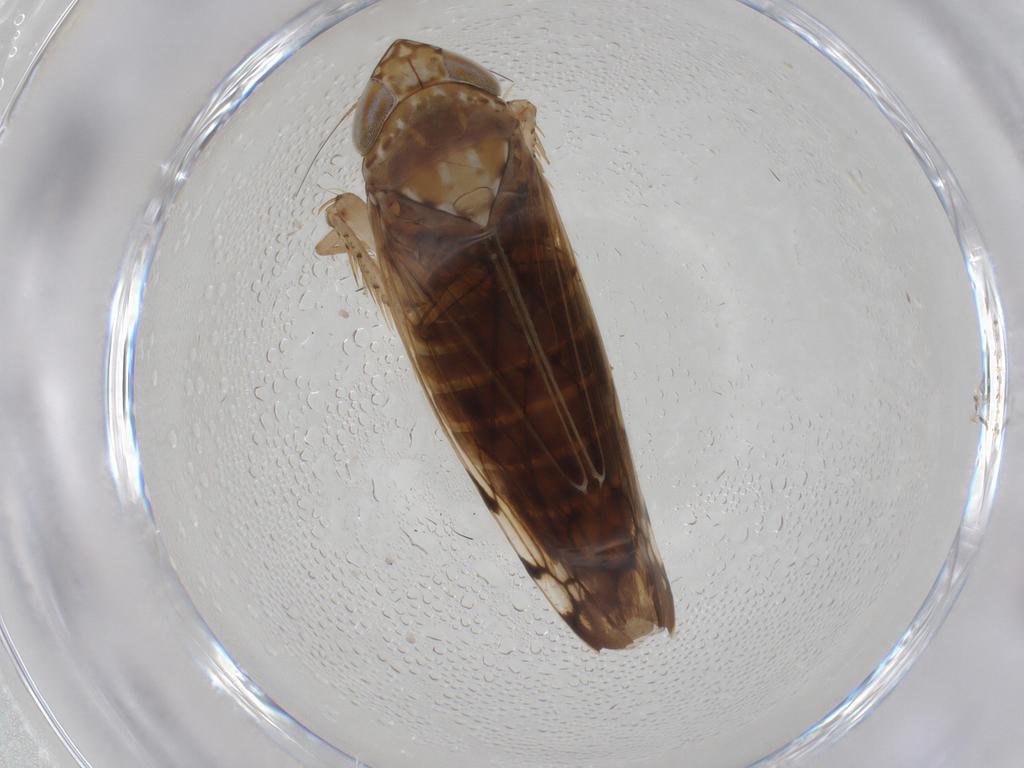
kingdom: Animalia
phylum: Arthropoda
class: Insecta
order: Hemiptera
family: Cicadellidae
